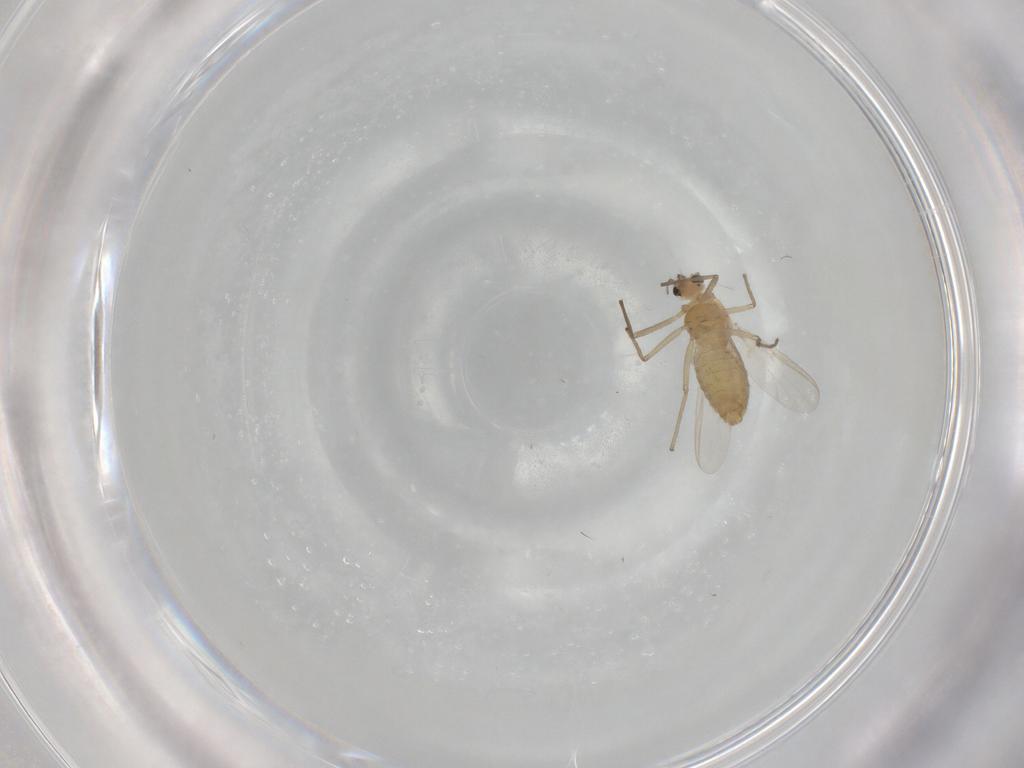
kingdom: Animalia
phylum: Arthropoda
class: Insecta
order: Diptera
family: Chironomidae
